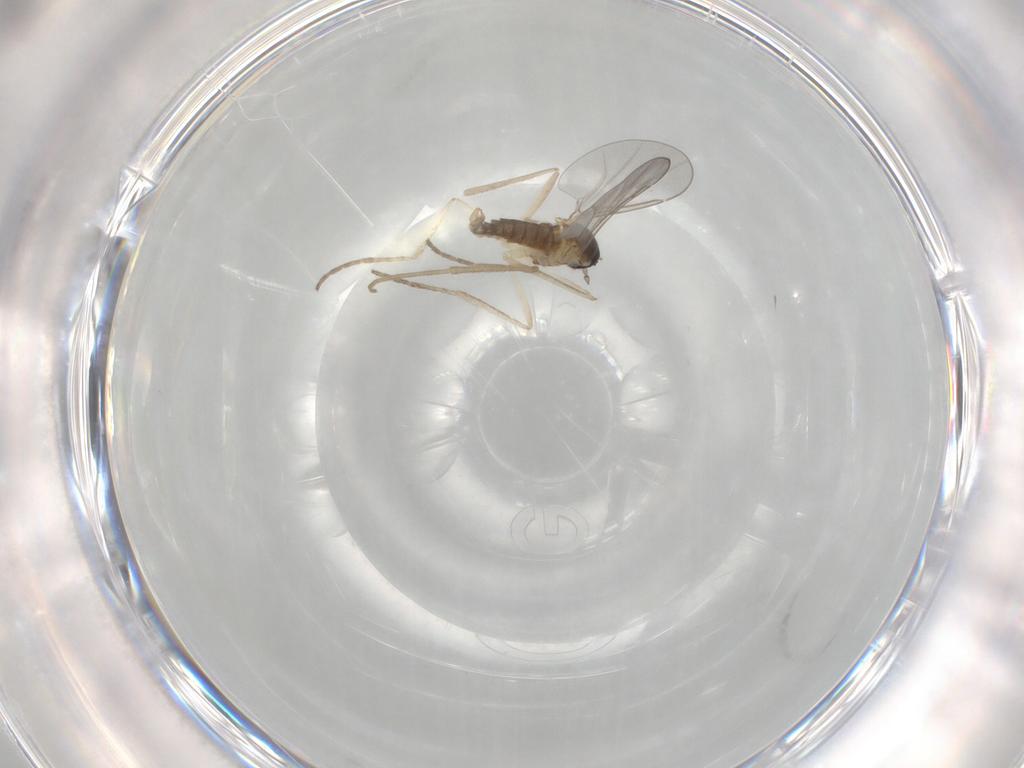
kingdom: Animalia
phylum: Arthropoda
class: Insecta
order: Diptera
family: Cecidomyiidae
